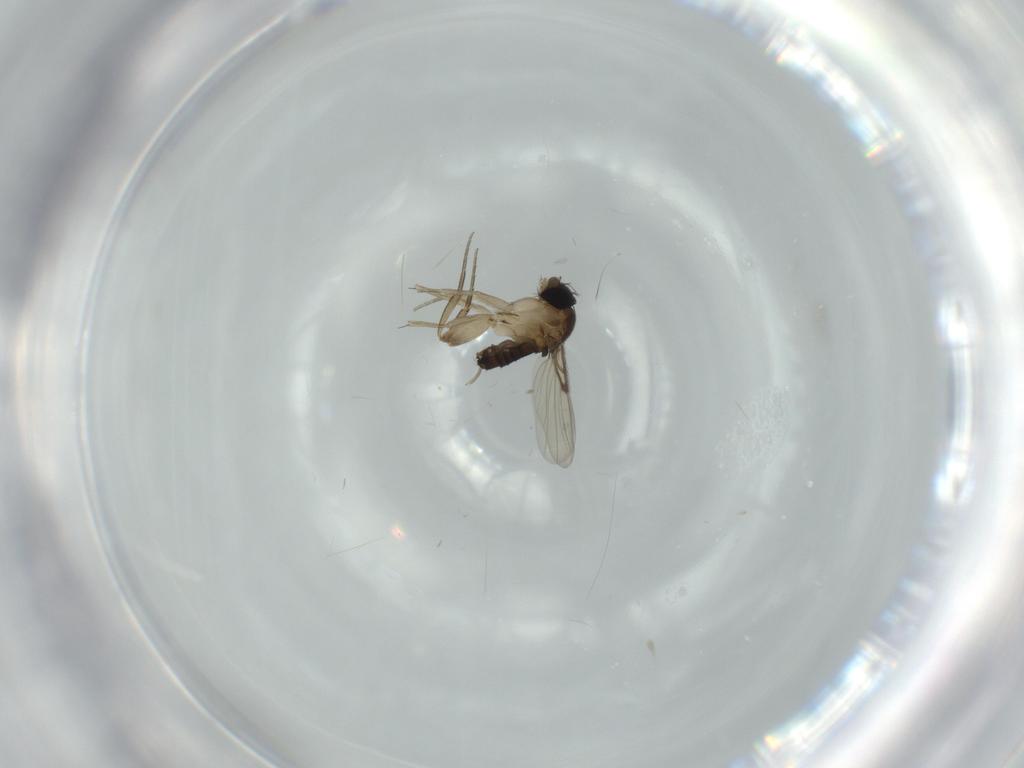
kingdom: Animalia
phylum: Arthropoda
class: Insecta
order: Diptera
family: Phoridae
